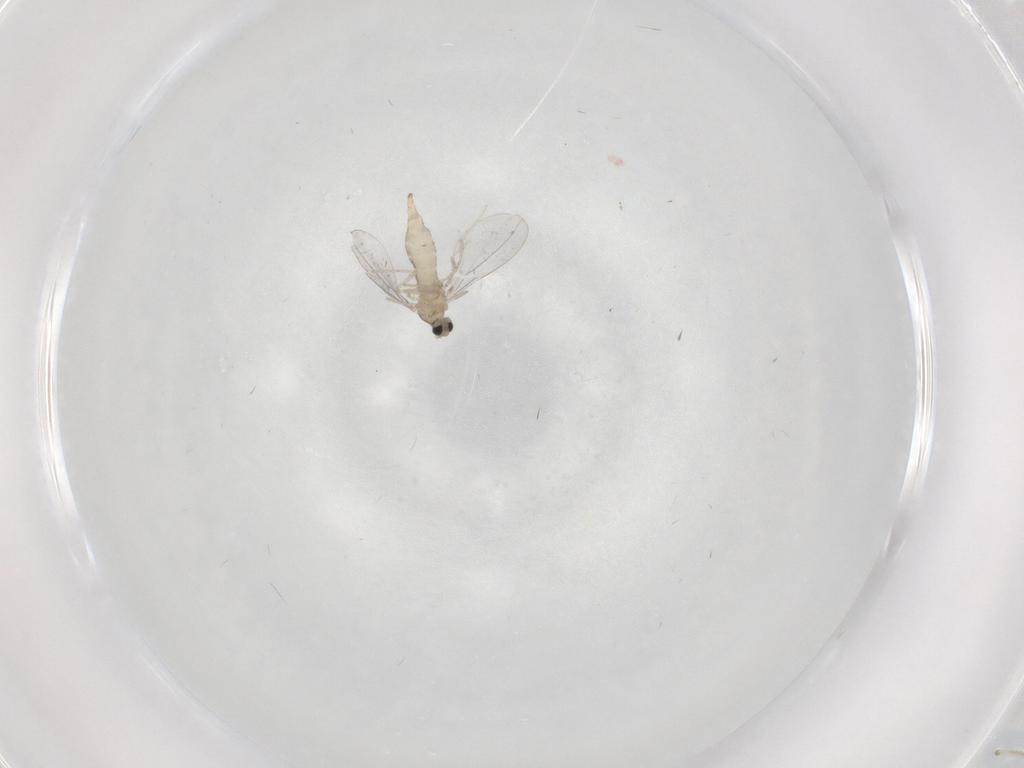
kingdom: Animalia
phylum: Arthropoda
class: Insecta
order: Diptera
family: Cecidomyiidae
